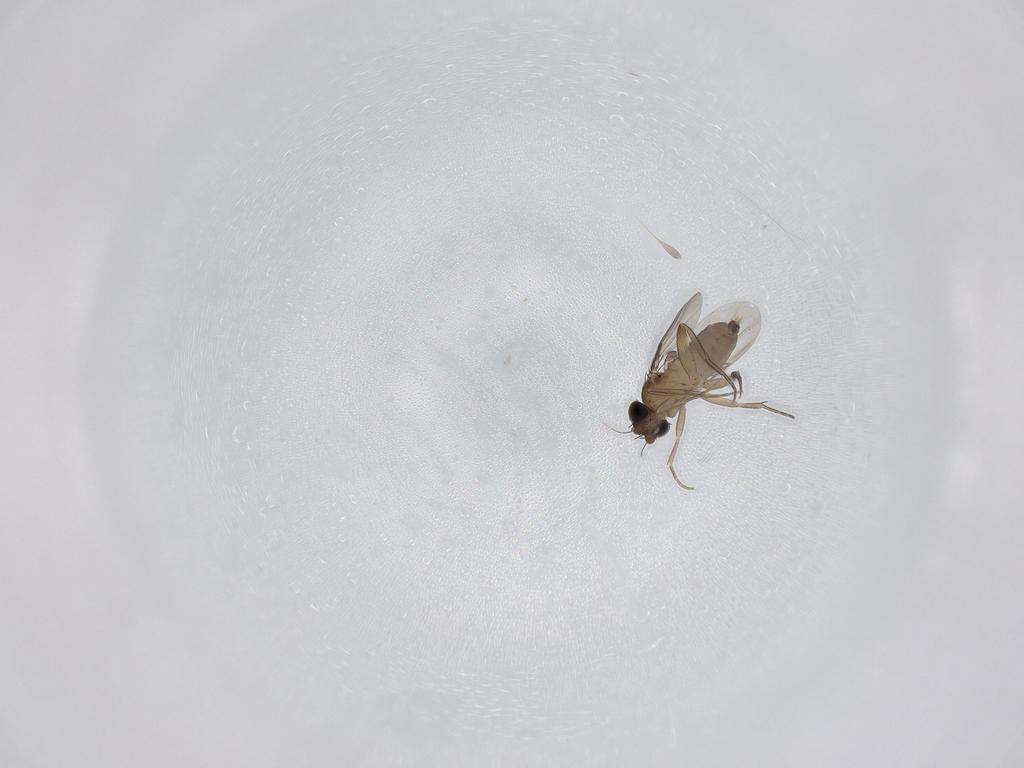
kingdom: Animalia
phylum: Arthropoda
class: Insecta
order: Diptera
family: Phoridae
